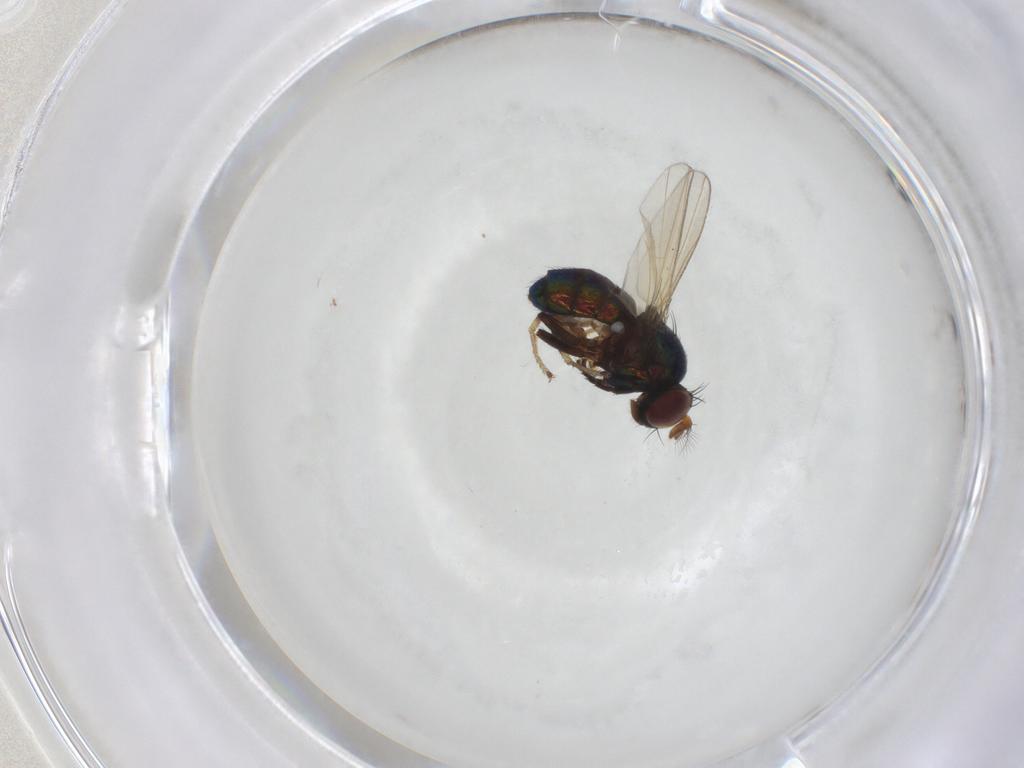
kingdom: Animalia
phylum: Arthropoda
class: Insecta
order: Diptera
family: Ephydridae
